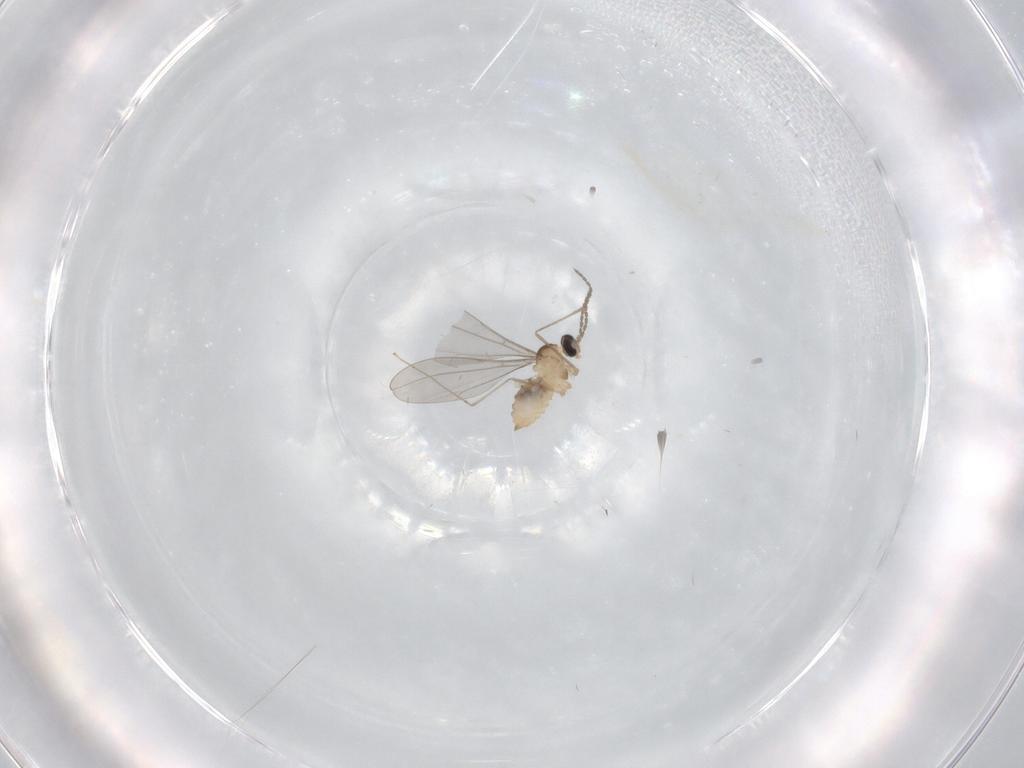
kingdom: Animalia
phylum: Arthropoda
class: Insecta
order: Diptera
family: Cecidomyiidae
